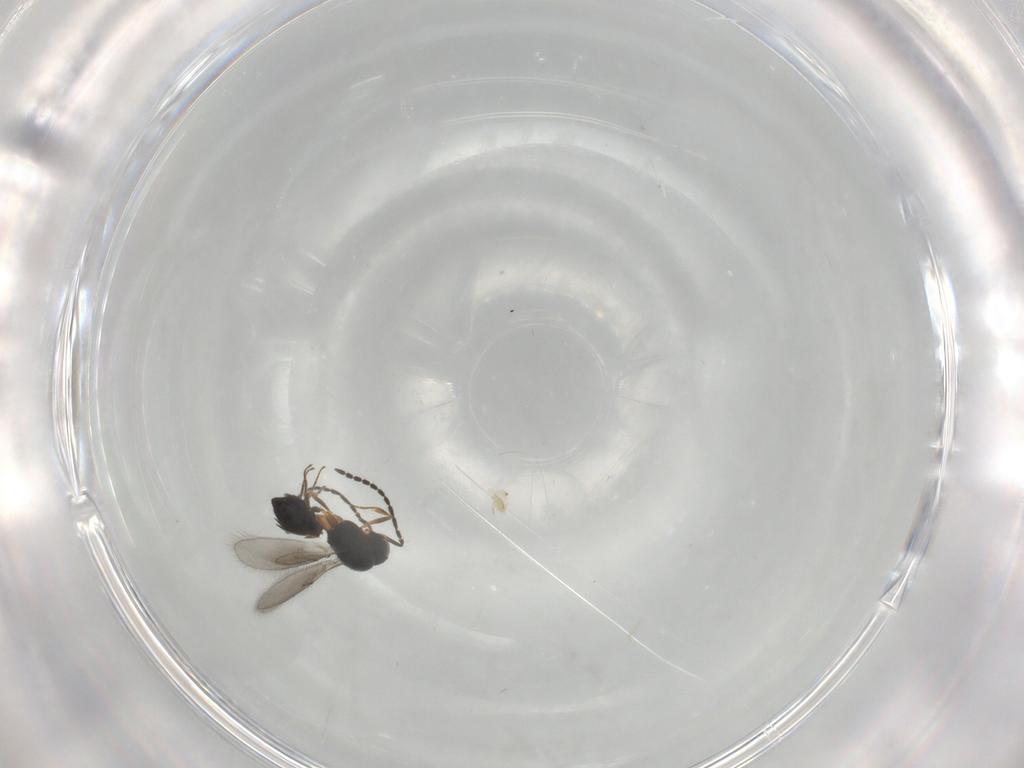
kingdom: Animalia
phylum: Arthropoda
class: Insecta
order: Hymenoptera
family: Scelionidae
